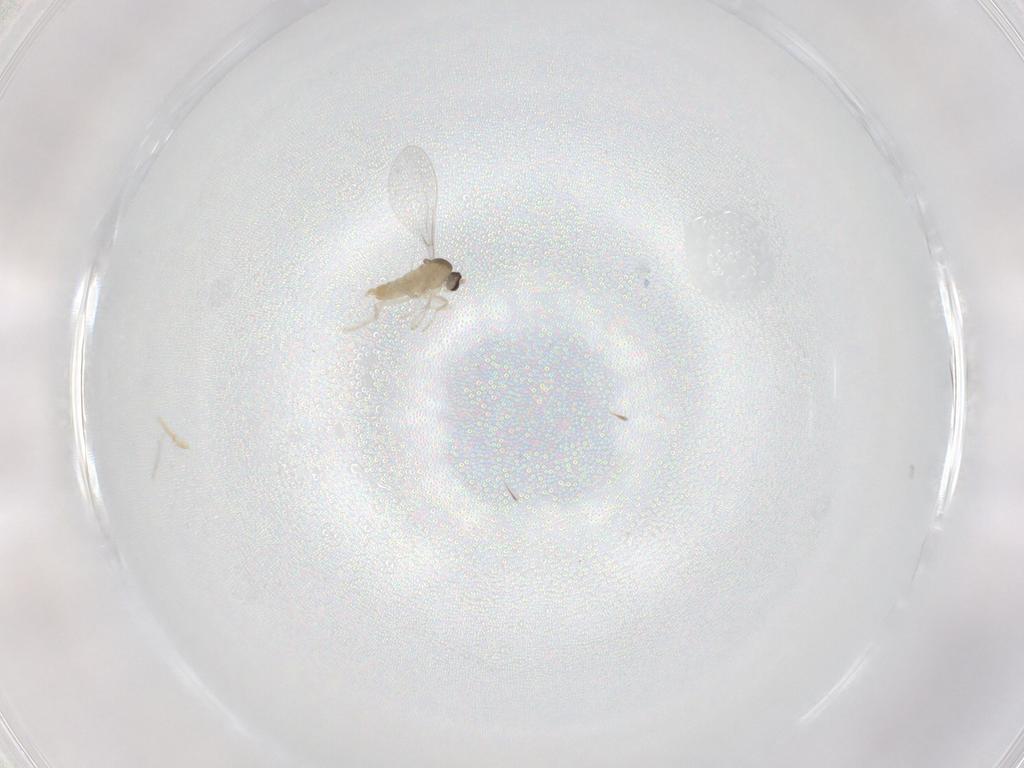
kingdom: Animalia
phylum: Arthropoda
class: Insecta
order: Diptera
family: Cecidomyiidae
